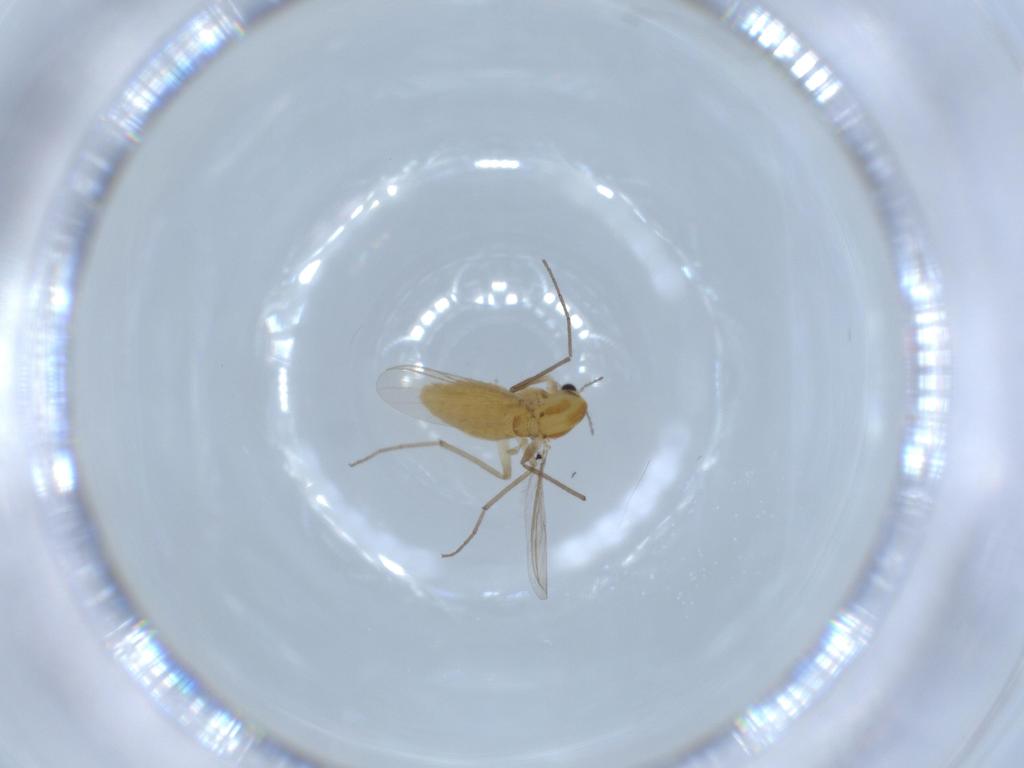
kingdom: Animalia
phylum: Arthropoda
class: Insecta
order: Diptera
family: Chironomidae
